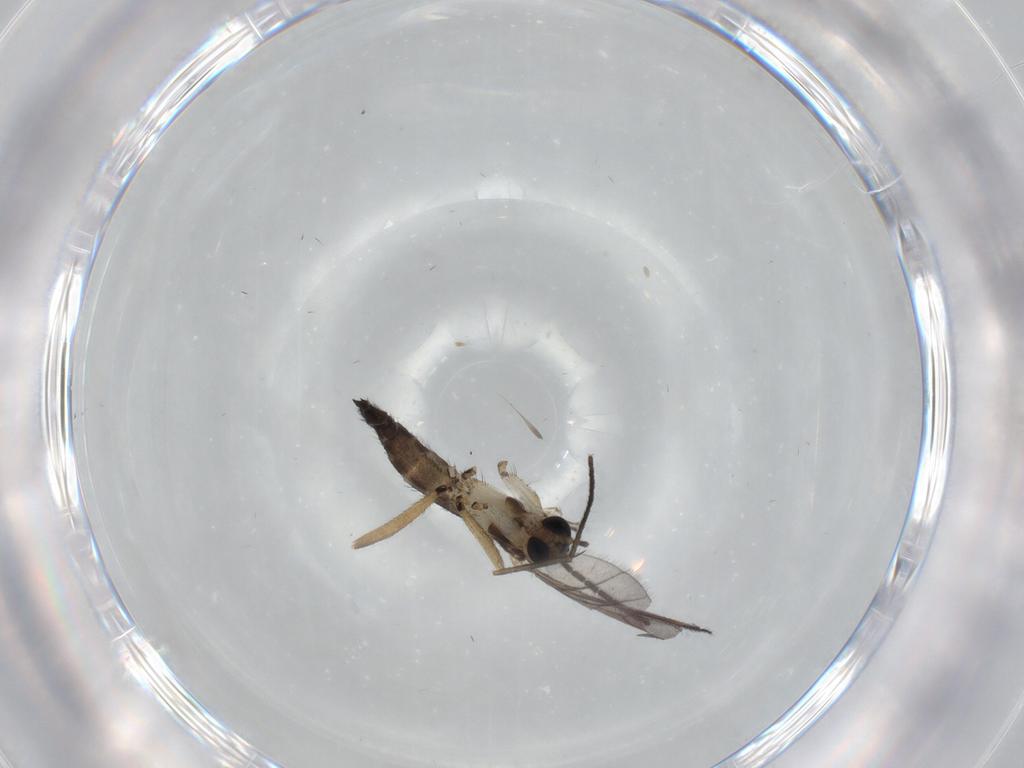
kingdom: Animalia
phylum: Arthropoda
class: Insecta
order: Diptera
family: Sciaridae
